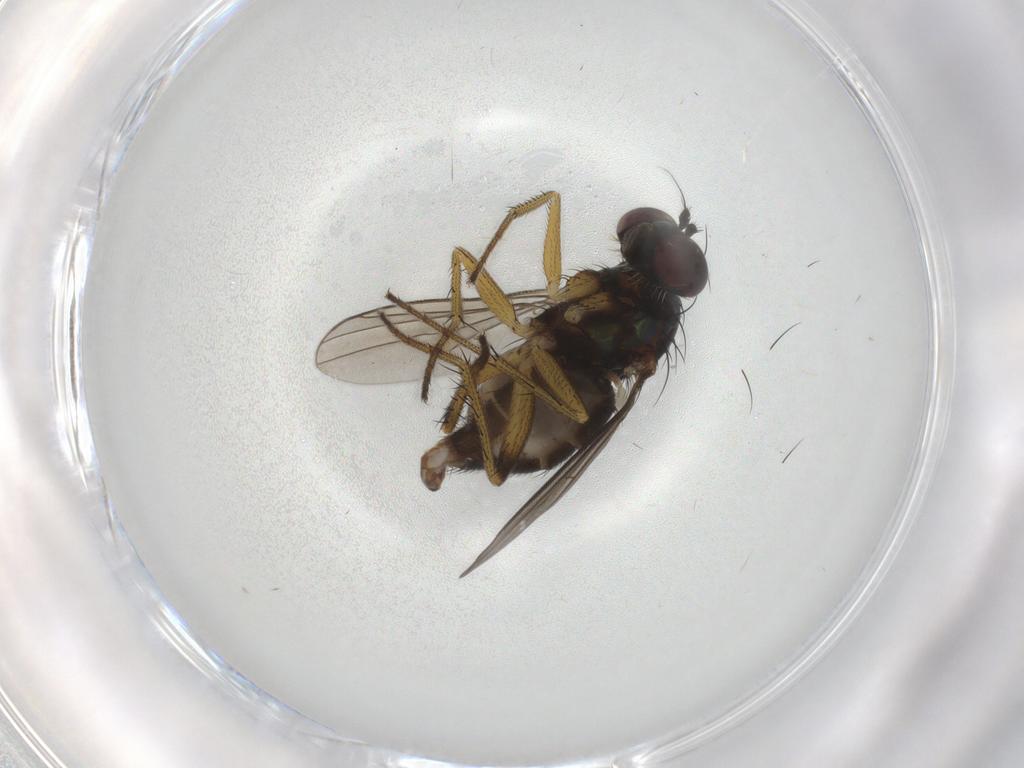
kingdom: Animalia
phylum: Arthropoda
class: Insecta
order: Diptera
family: Dolichopodidae
